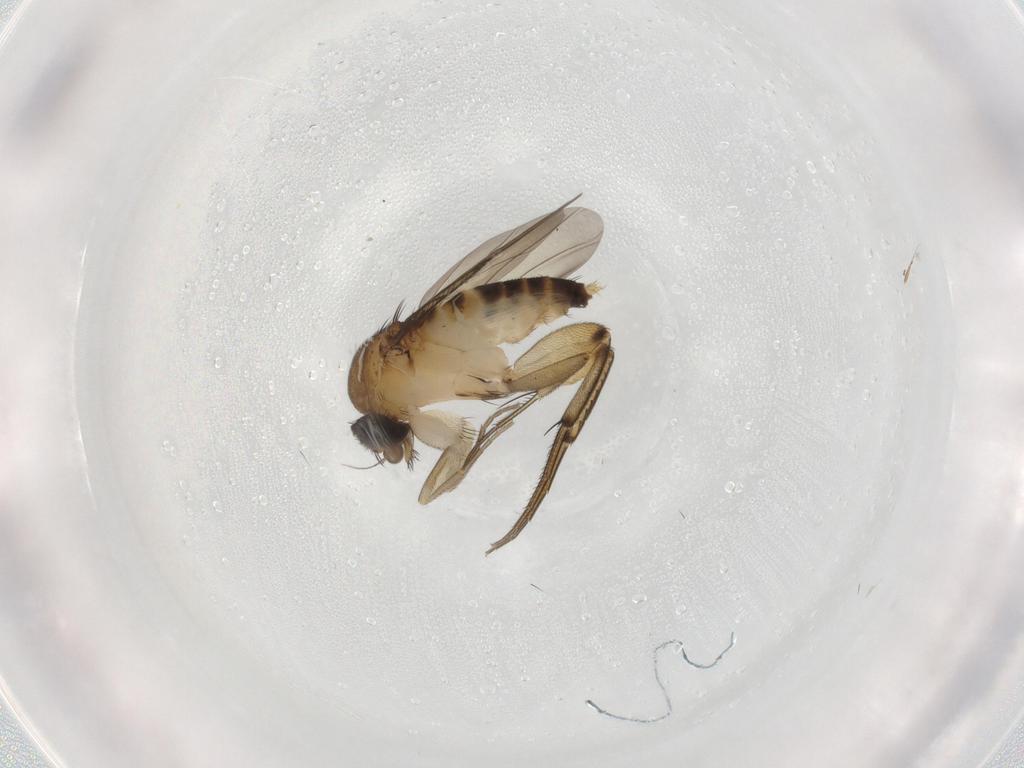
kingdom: Animalia
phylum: Arthropoda
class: Insecta
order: Diptera
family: Phoridae
